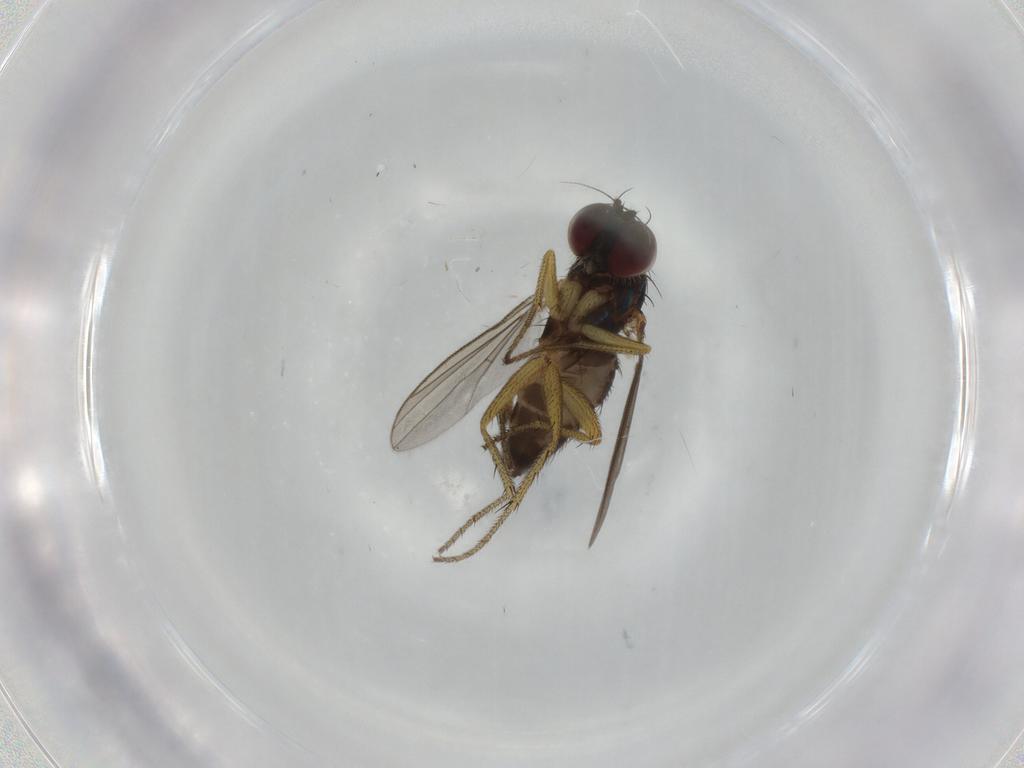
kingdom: Animalia
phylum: Arthropoda
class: Insecta
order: Diptera
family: Dolichopodidae
